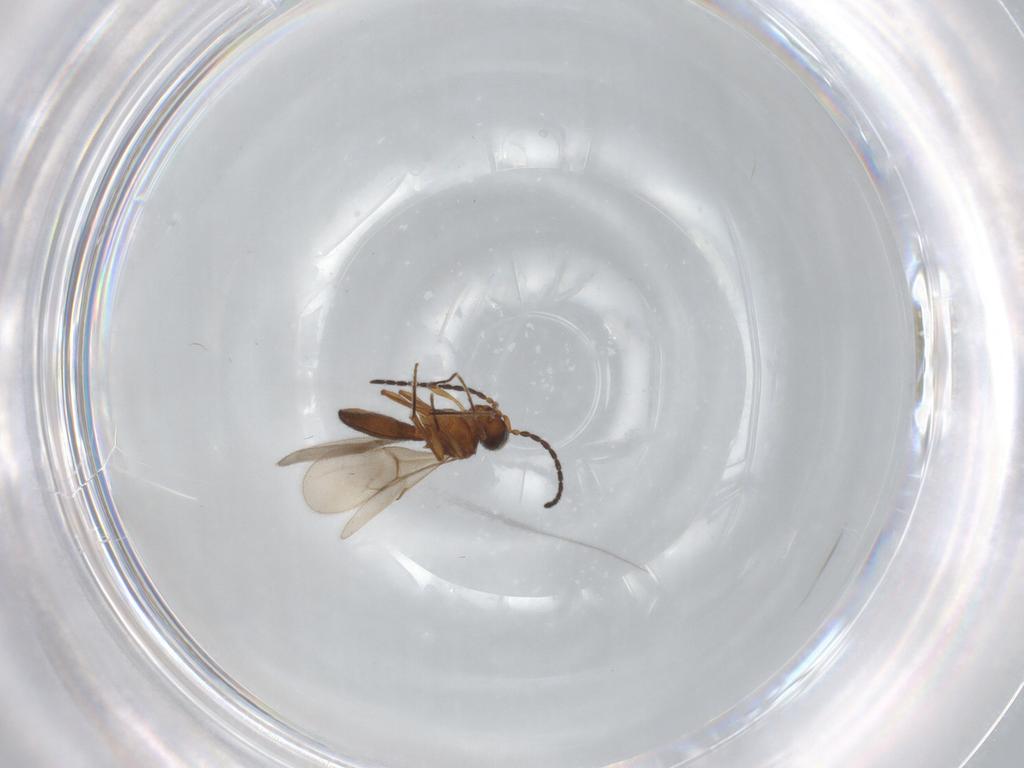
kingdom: Animalia
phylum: Arthropoda
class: Insecta
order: Hymenoptera
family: Scelionidae
